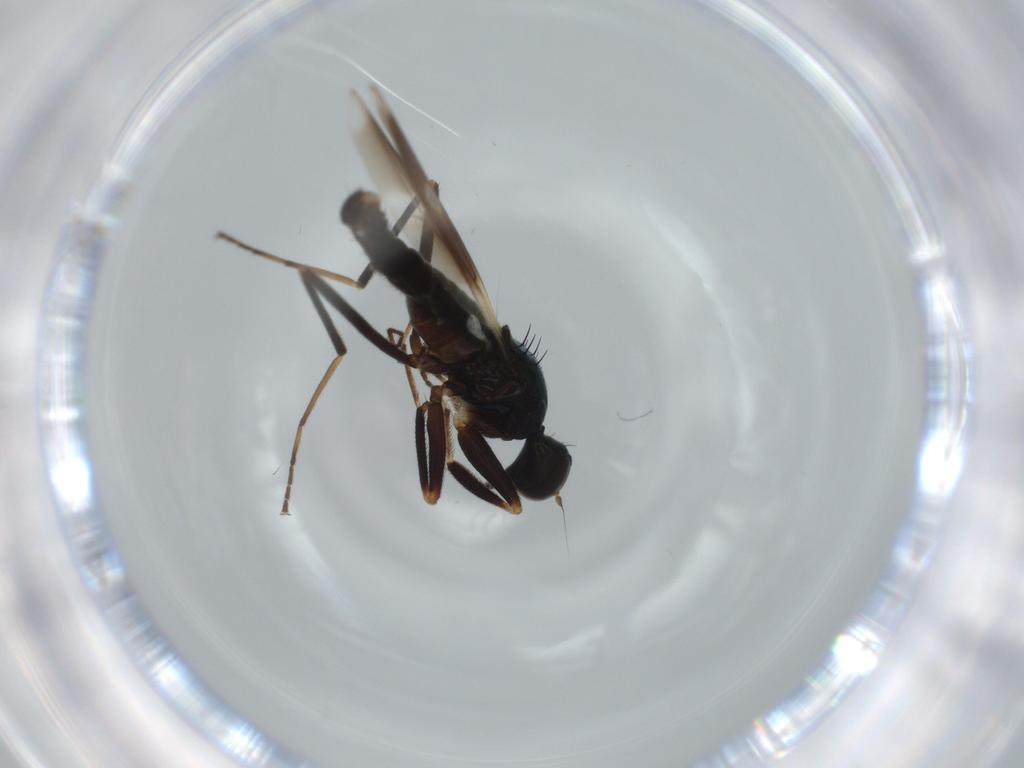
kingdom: Animalia
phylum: Arthropoda
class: Insecta
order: Diptera
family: Hybotidae
